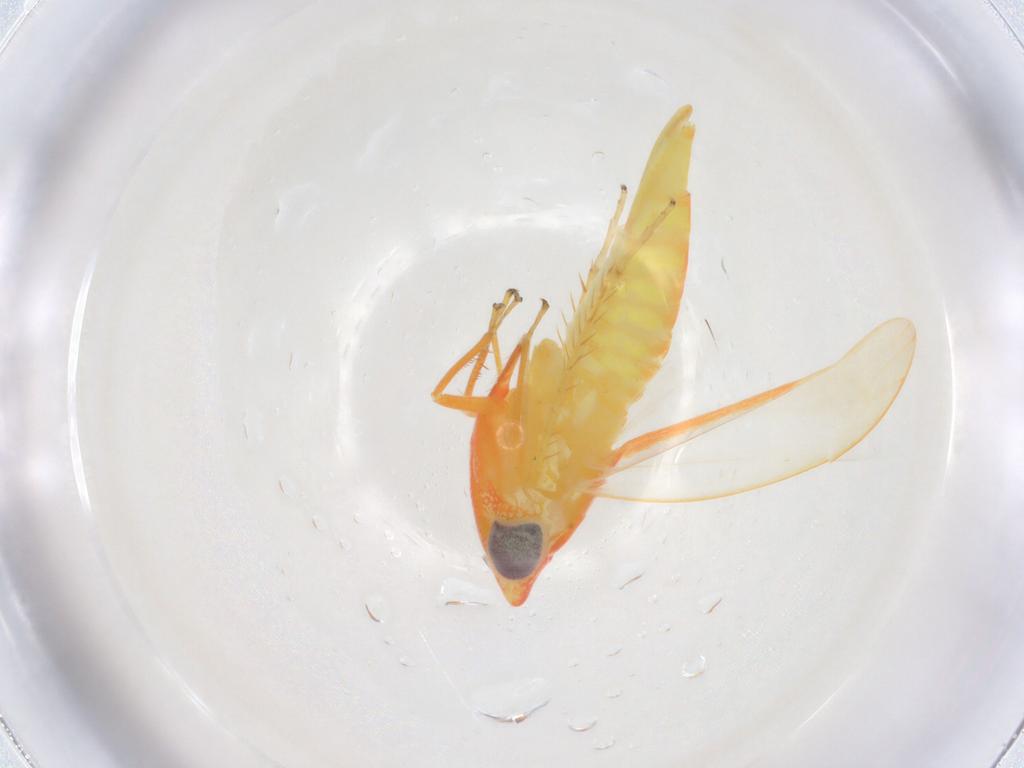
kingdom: Animalia
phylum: Arthropoda
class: Insecta
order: Hemiptera
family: Cicadellidae
